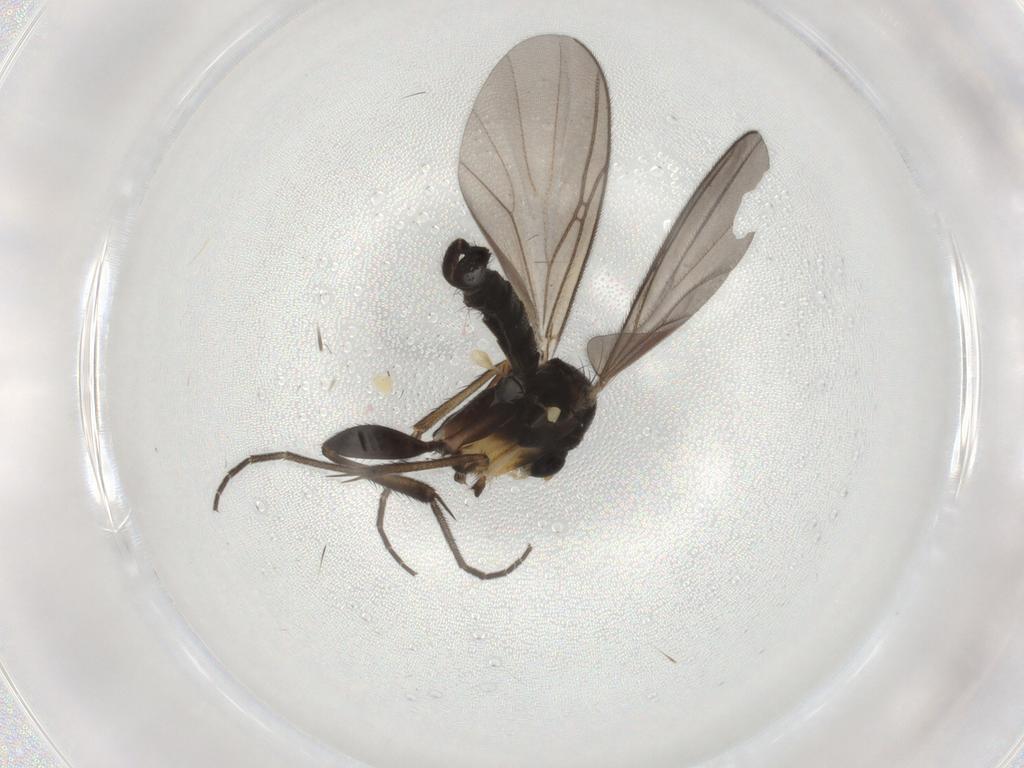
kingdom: Animalia
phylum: Arthropoda
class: Insecta
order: Diptera
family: Mycetophilidae
